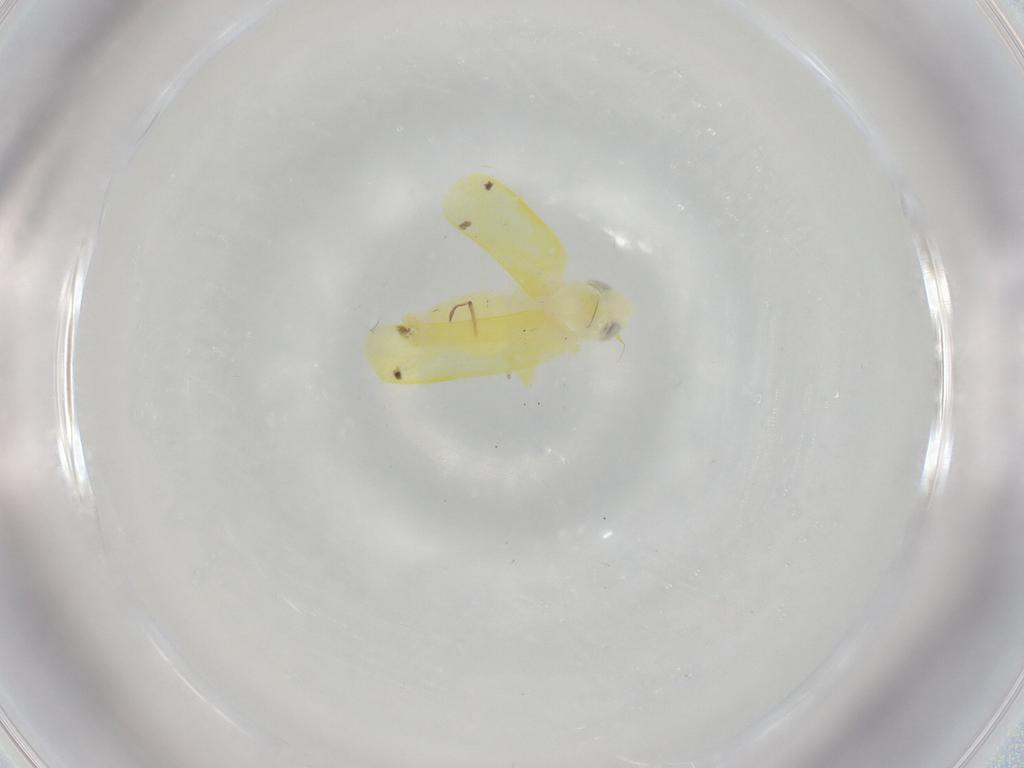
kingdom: Animalia
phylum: Arthropoda
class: Insecta
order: Hemiptera
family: Cicadellidae
